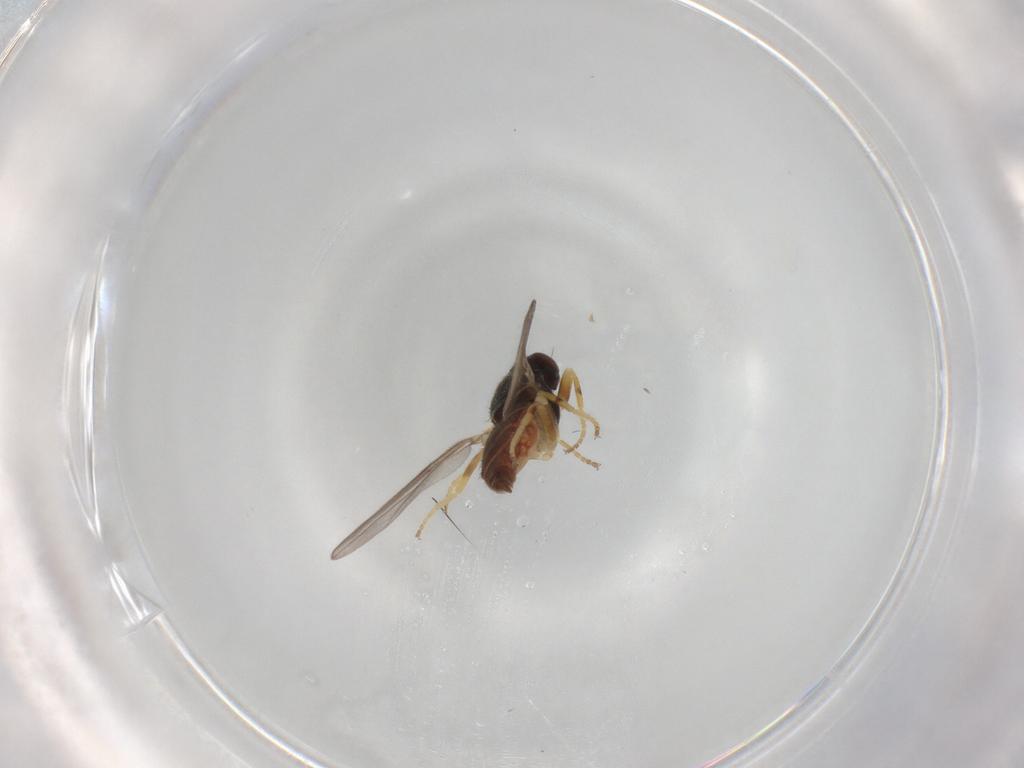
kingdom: Animalia
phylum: Arthropoda
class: Insecta
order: Diptera
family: Chloropidae
